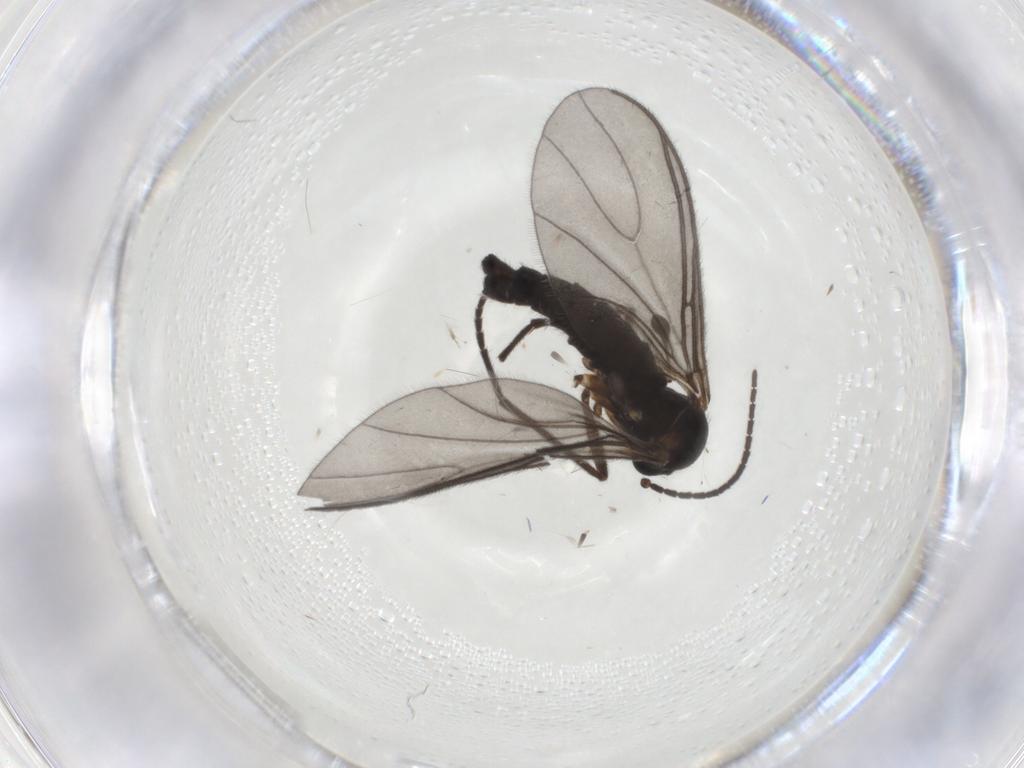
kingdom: Animalia
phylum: Arthropoda
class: Insecta
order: Diptera
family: Sciaridae
